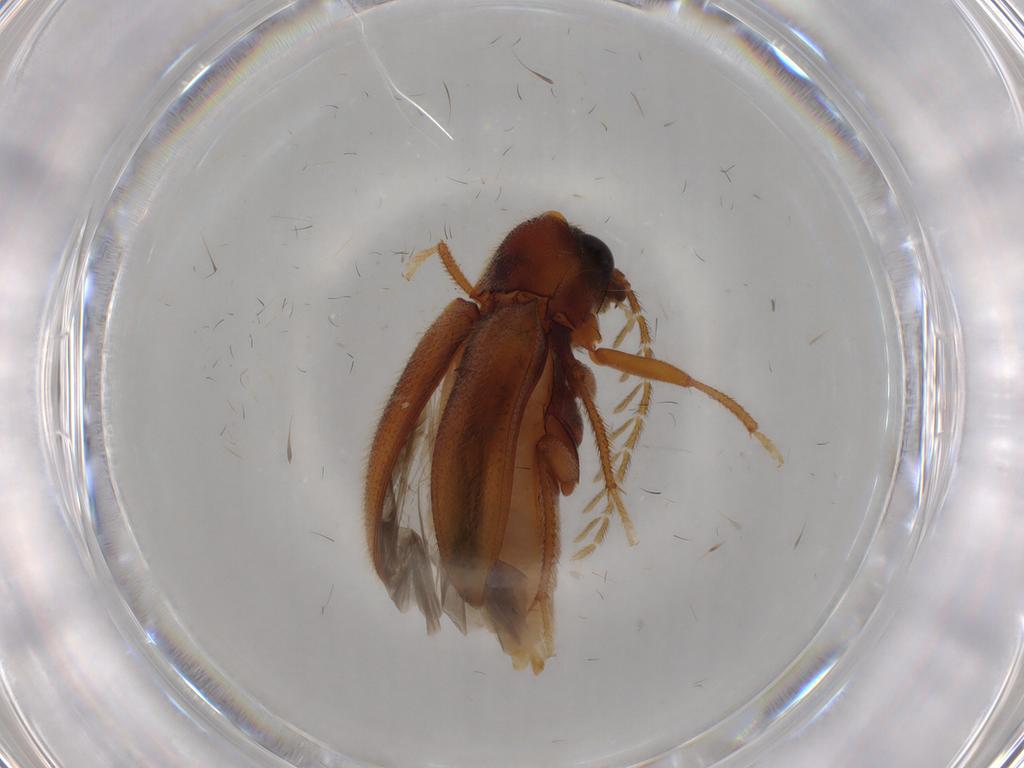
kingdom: Animalia
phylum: Arthropoda
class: Insecta
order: Coleoptera
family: Ptilodactylidae
